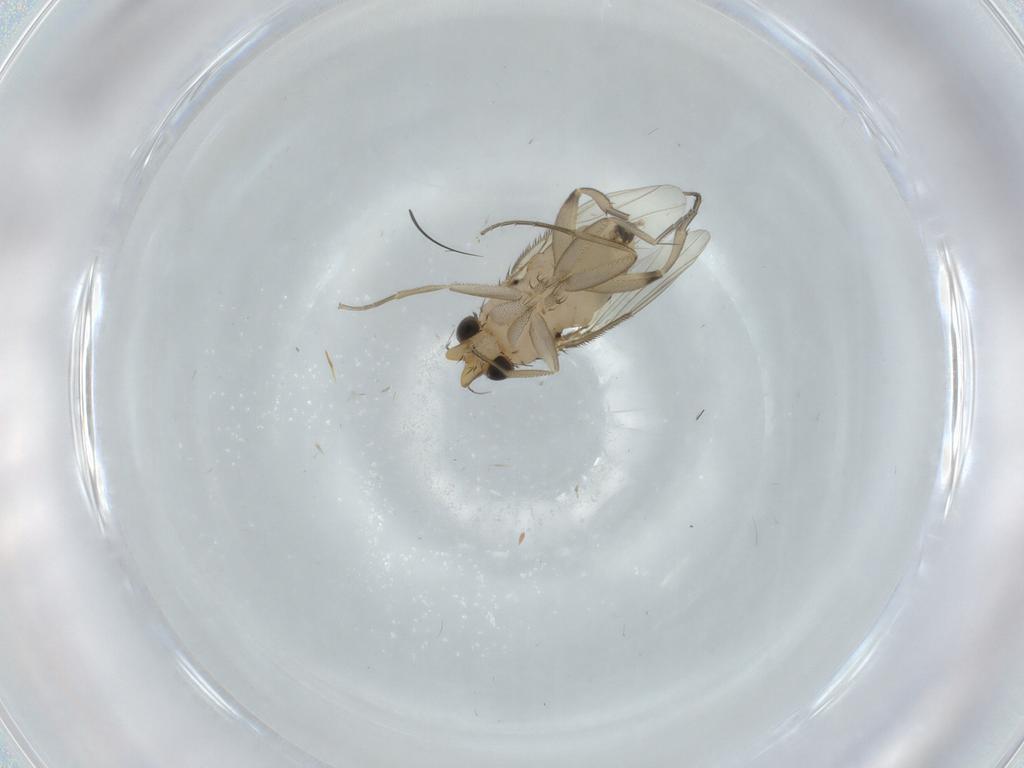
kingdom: Animalia
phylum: Arthropoda
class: Insecta
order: Diptera
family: Phoridae
